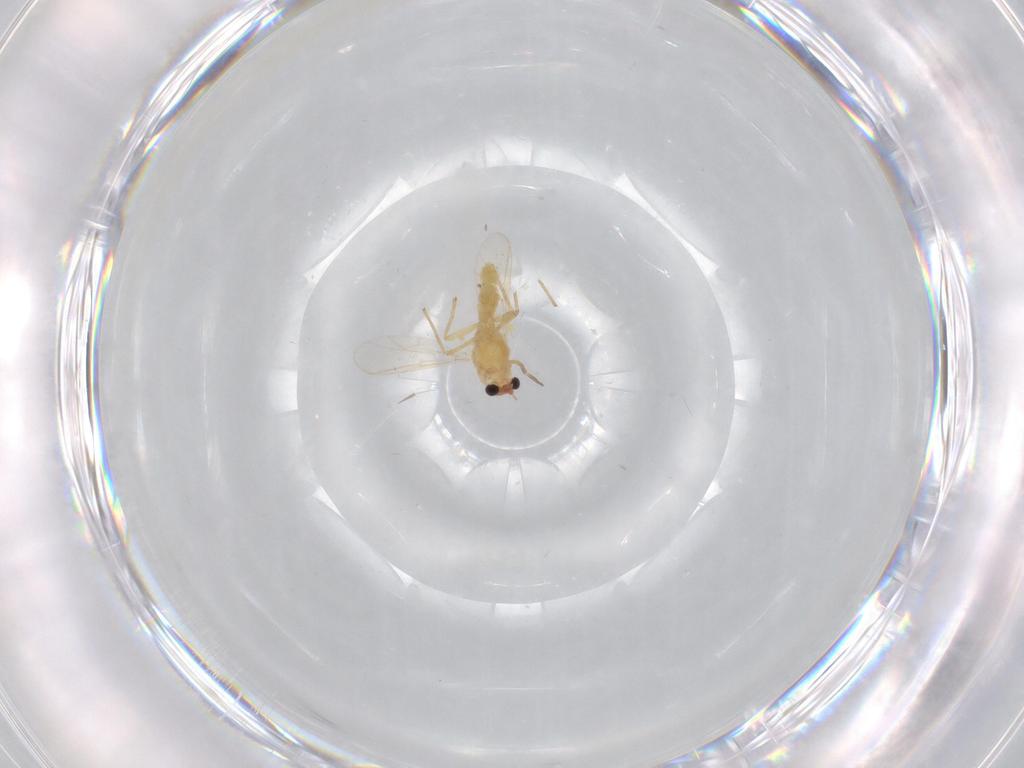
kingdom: Animalia
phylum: Arthropoda
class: Insecta
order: Diptera
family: Chironomidae
